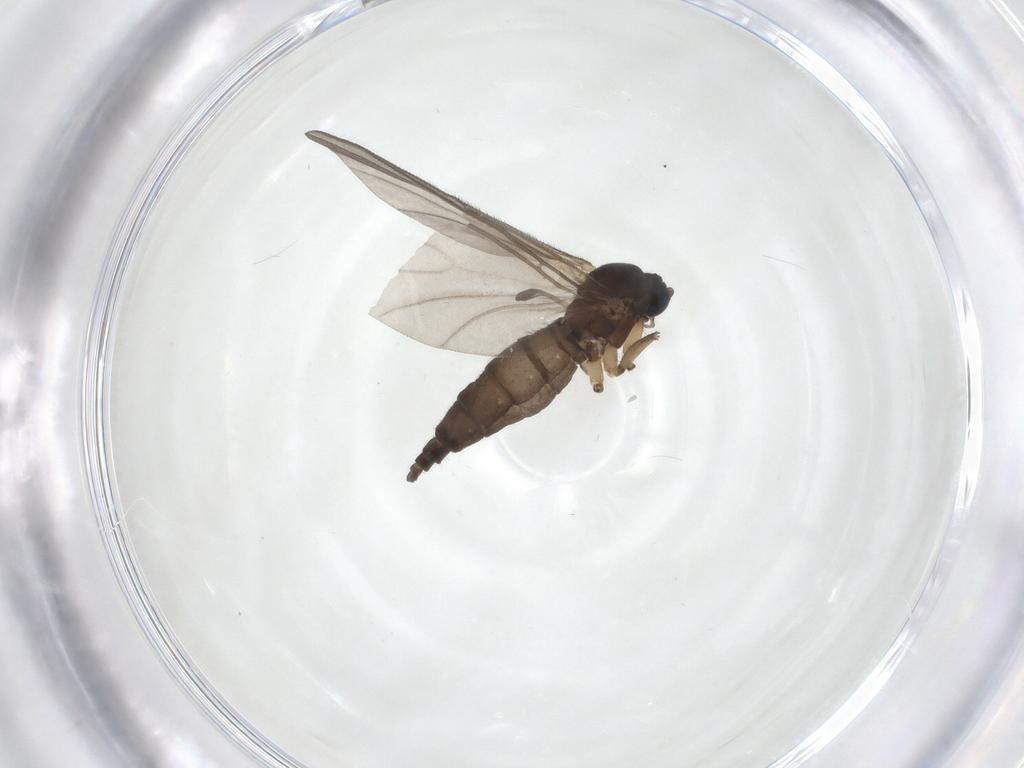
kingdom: Animalia
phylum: Arthropoda
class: Insecta
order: Diptera
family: Sciaridae
